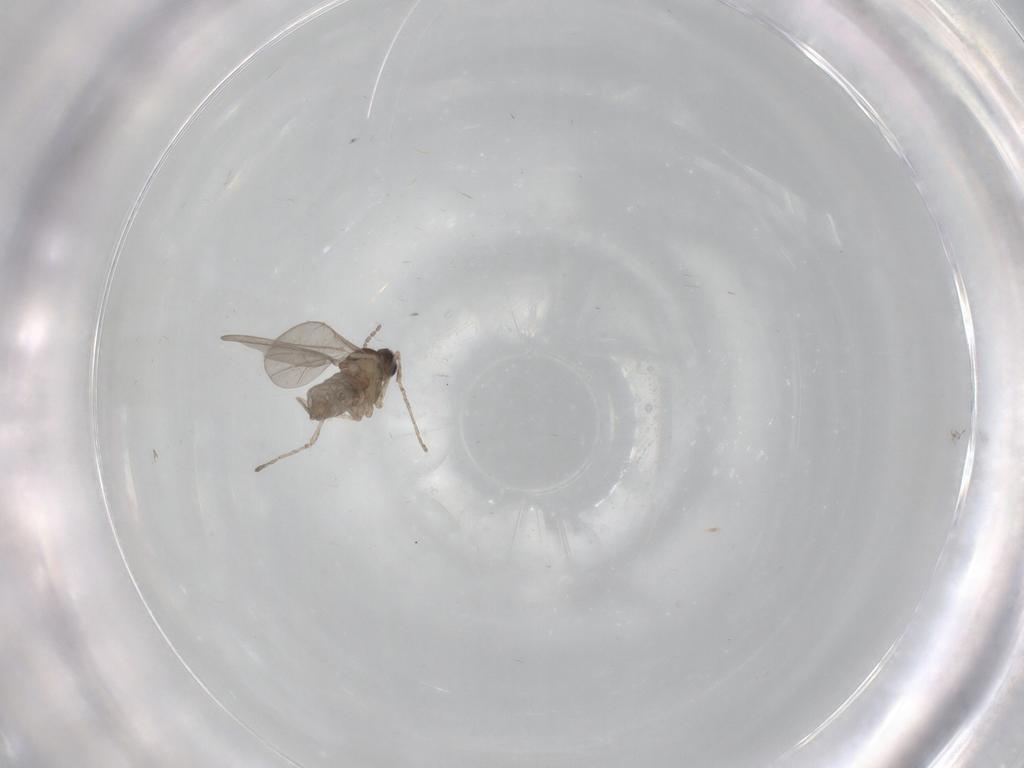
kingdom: Animalia
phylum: Arthropoda
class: Insecta
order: Diptera
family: Chironomidae
